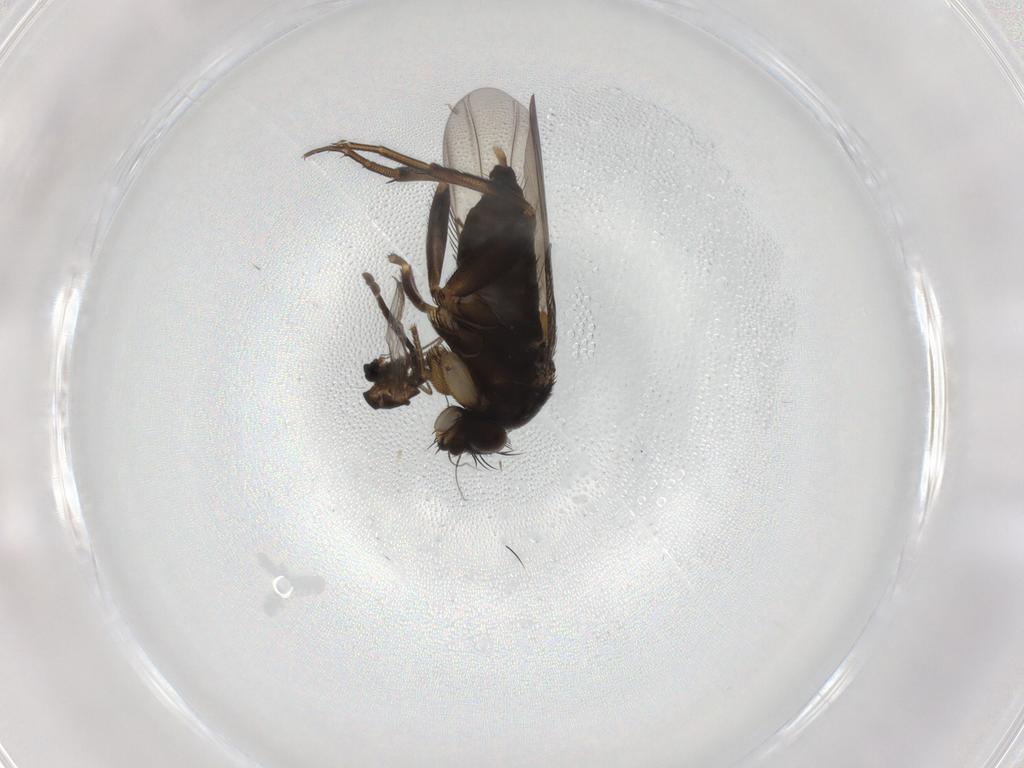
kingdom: Animalia
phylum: Arthropoda
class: Insecta
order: Diptera
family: Phoridae
